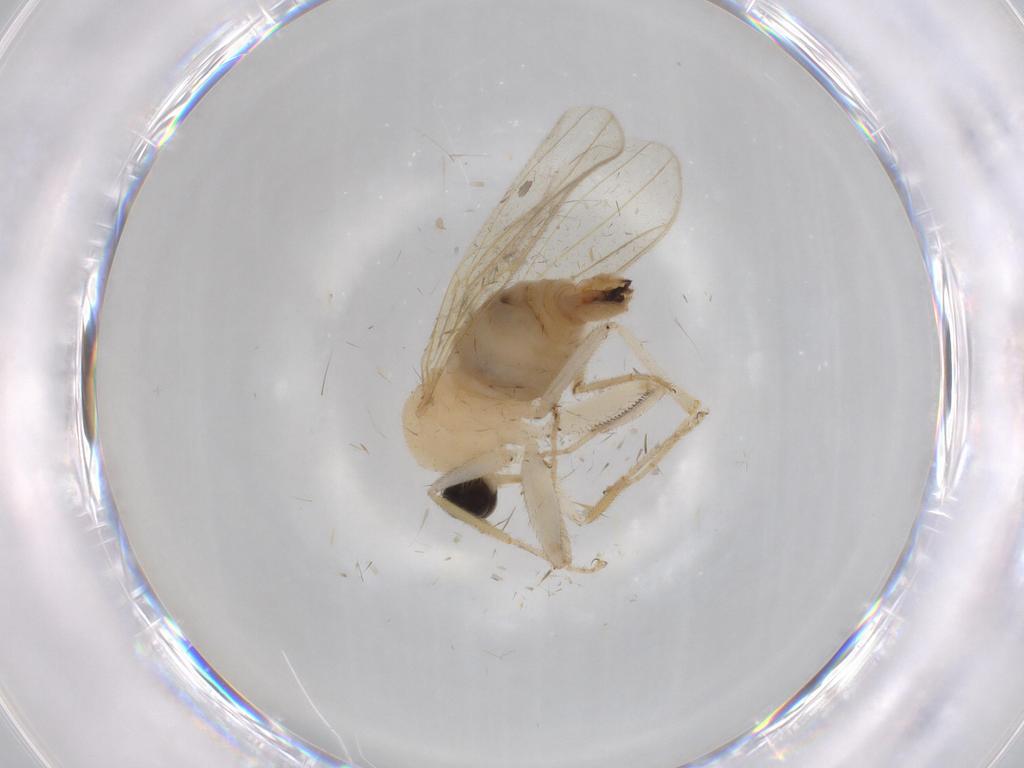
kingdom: Animalia
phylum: Arthropoda
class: Insecta
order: Diptera
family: Hybotidae
